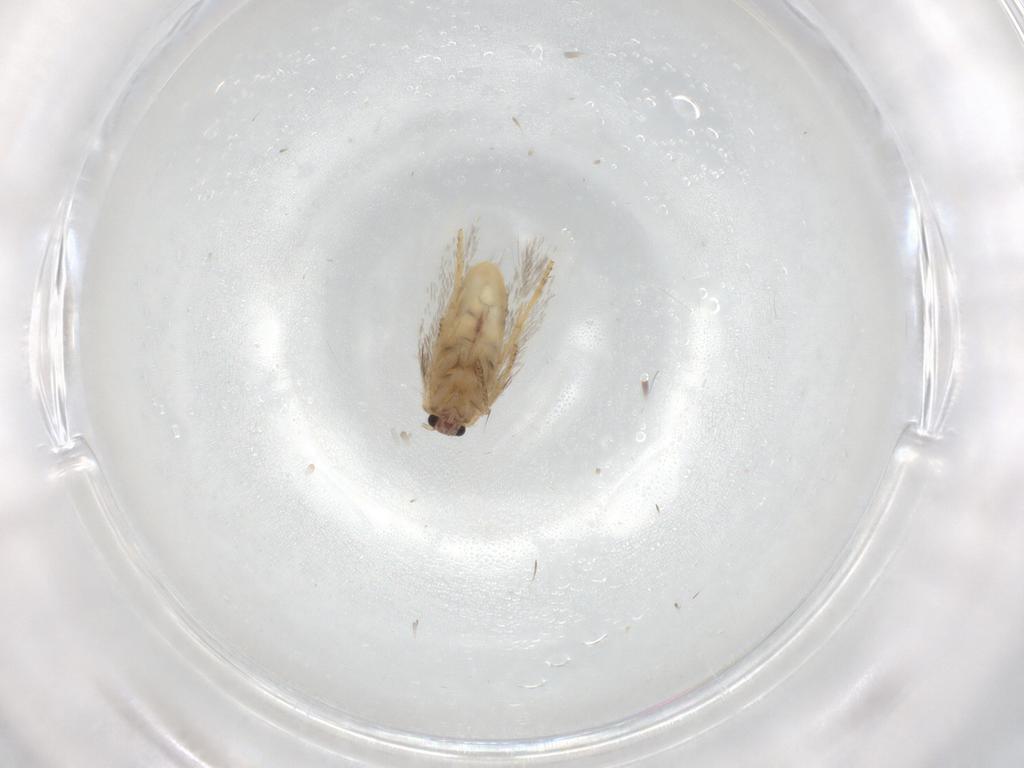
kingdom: Animalia
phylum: Arthropoda
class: Insecta
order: Lepidoptera
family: Nepticulidae
